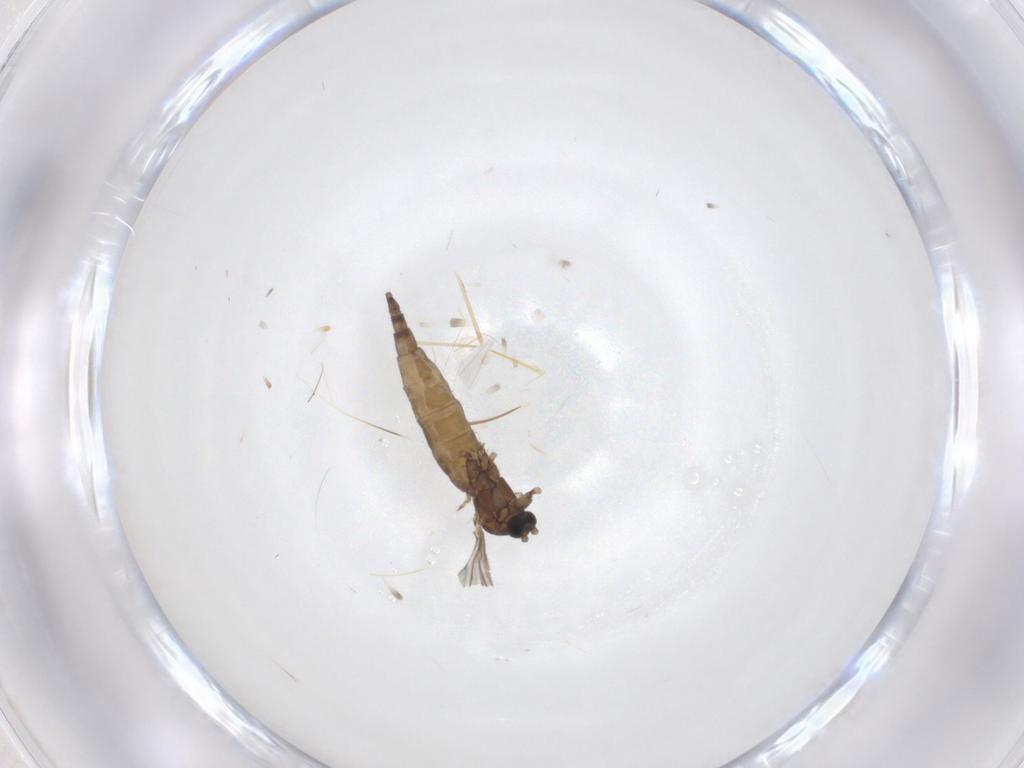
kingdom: Animalia
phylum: Arthropoda
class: Insecta
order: Diptera
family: Sciaridae
